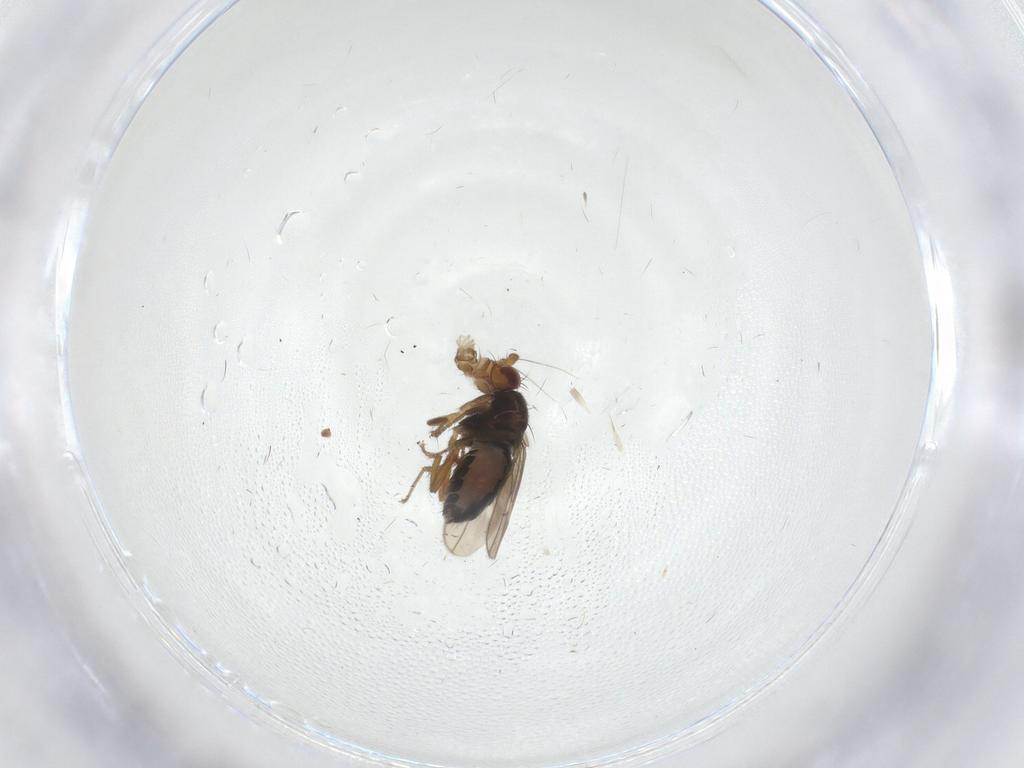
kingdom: Animalia
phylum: Arthropoda
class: Insecta
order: Diptera
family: Sphaeroceridae
